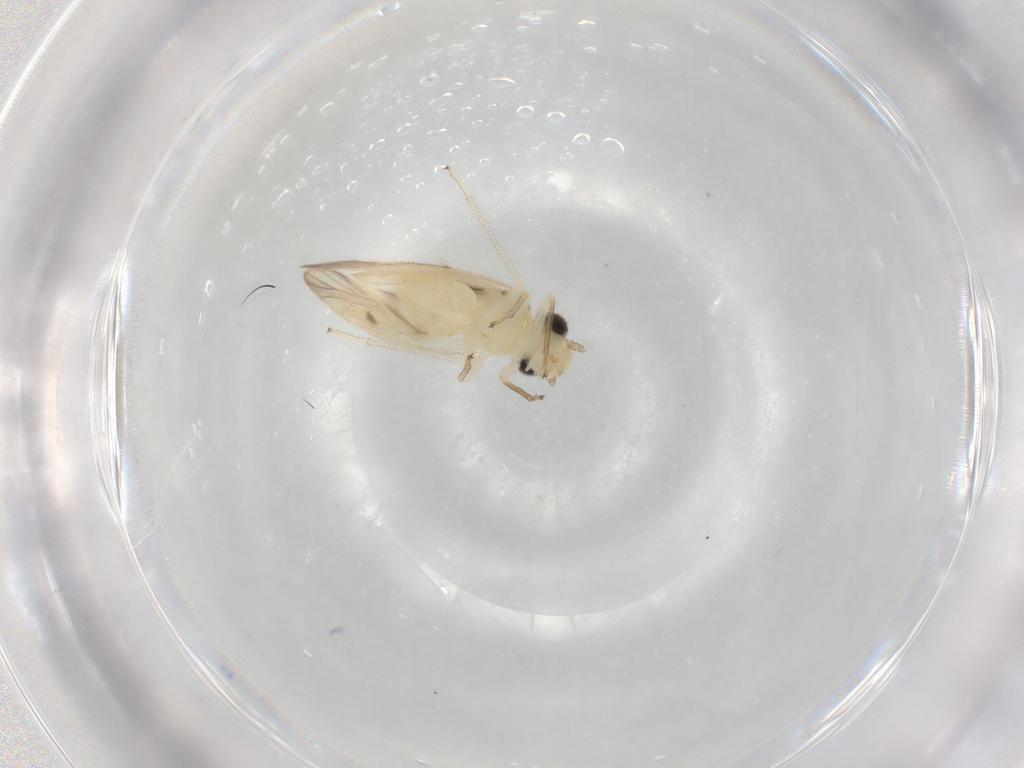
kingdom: Animalia
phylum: Arthropoda
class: Insecta
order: Psocodea
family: Caeciliusidae
